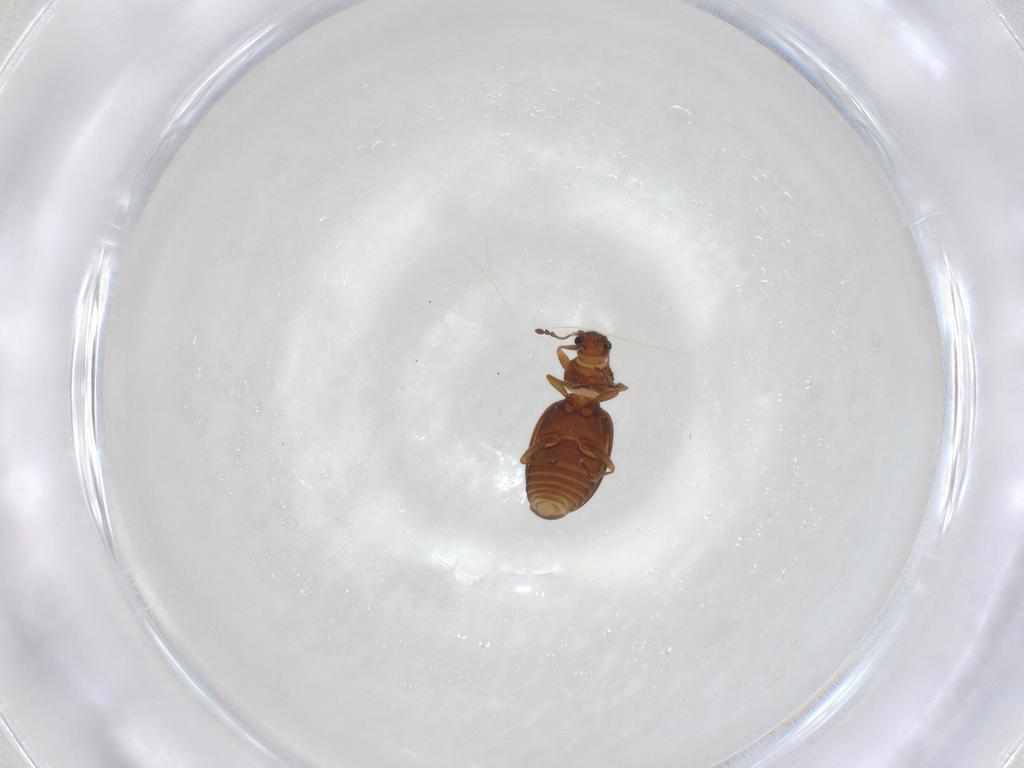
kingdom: Animalia
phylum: Arthropoda
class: Insecta
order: Coleoptera
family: Latridiidae
